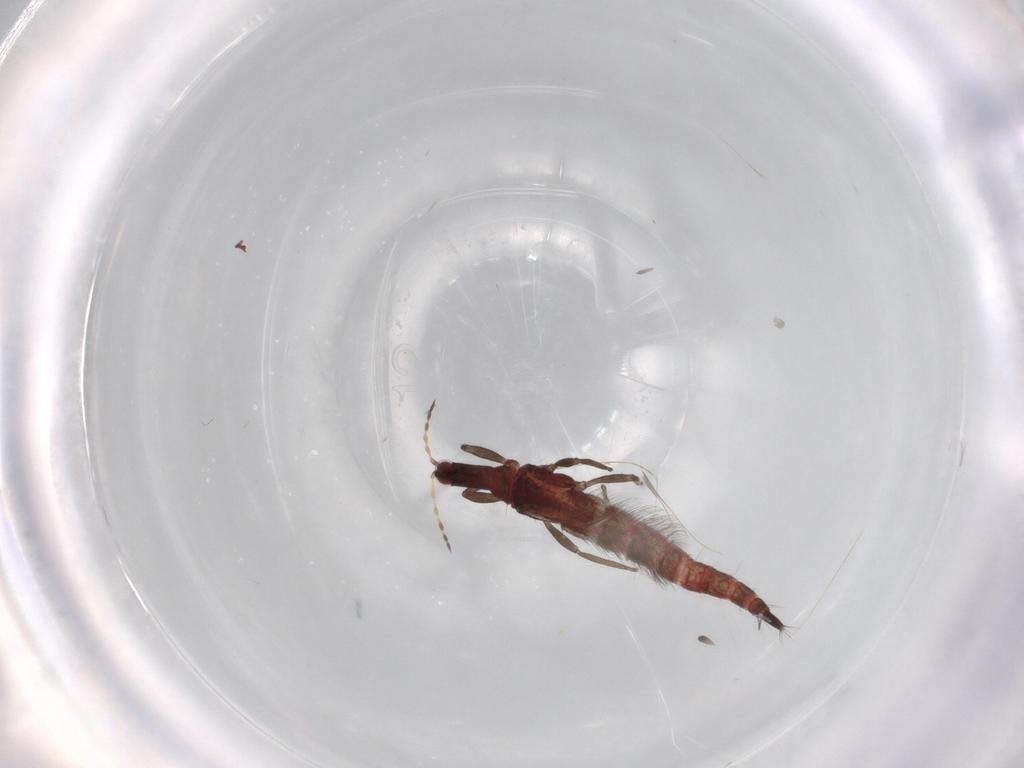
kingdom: Animalia
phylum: Arthropoda
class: Insecta
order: Thysanoptera
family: Phlaeothripidae
